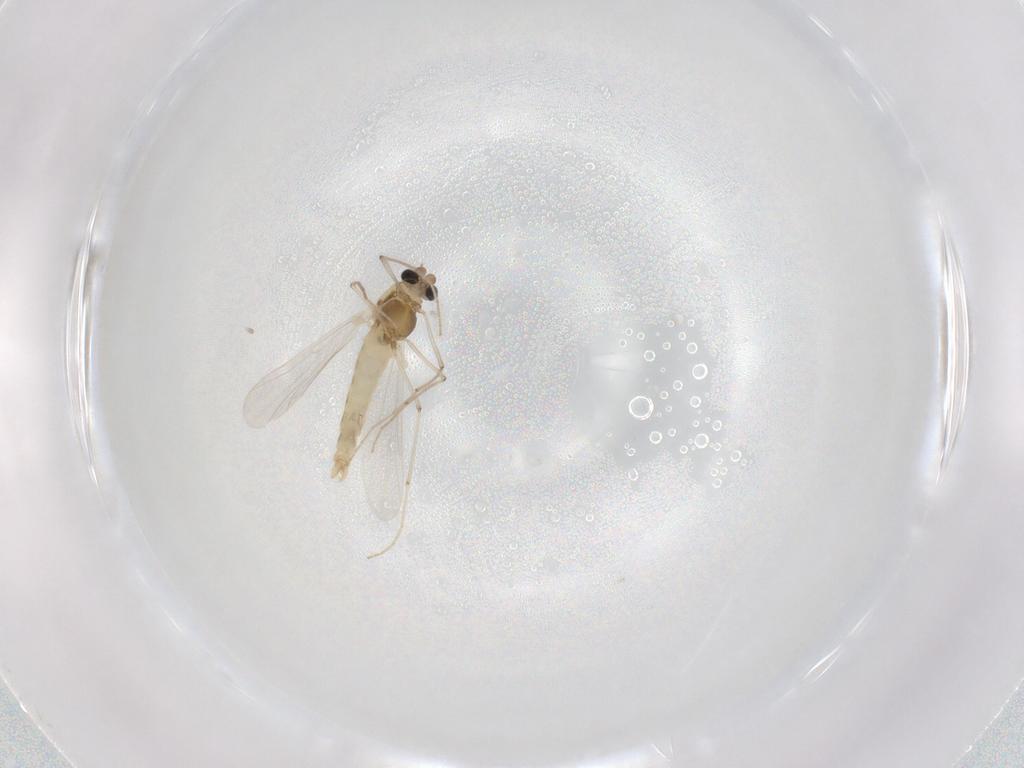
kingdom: Animalia
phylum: Arthropoda
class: Insecta
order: Diptera
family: Chironomidae
